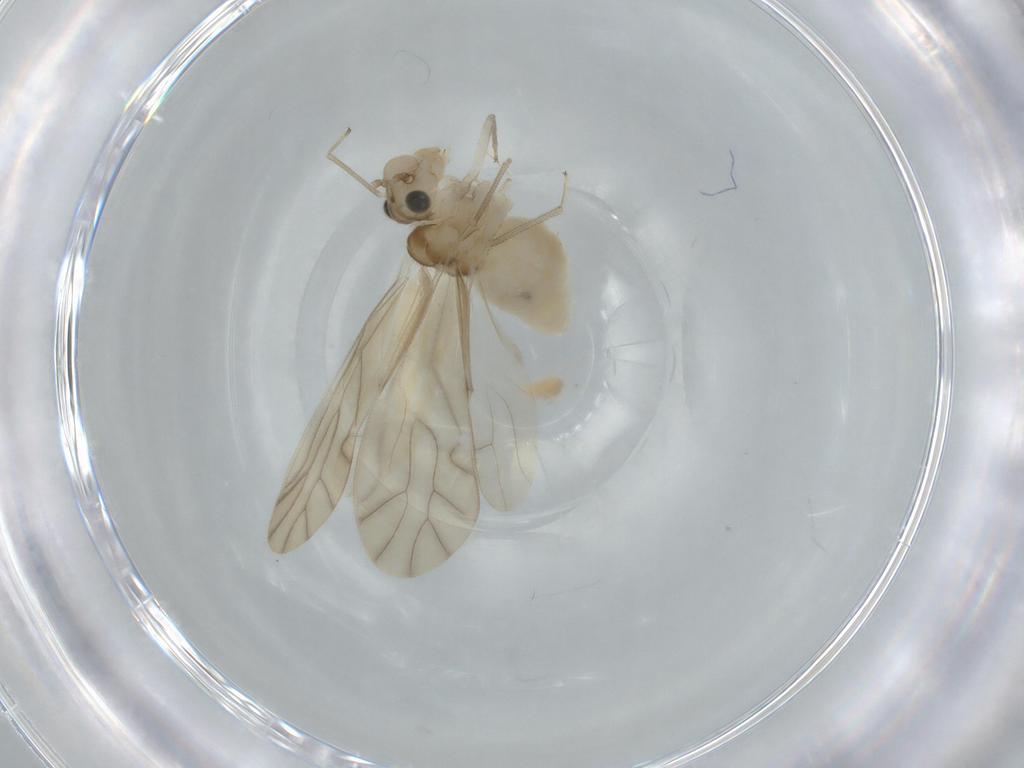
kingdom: Animalia
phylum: Arthropoda
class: Insecta
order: Psocodea
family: Caeciliusidae
